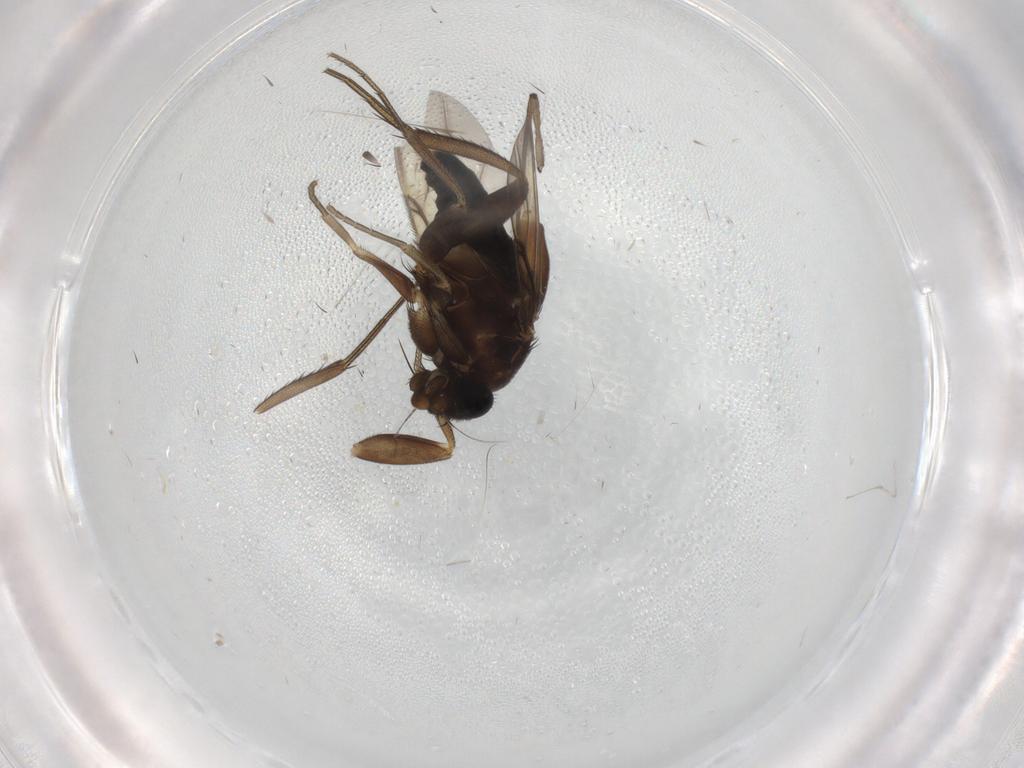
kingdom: Animalia
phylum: Arthropoda
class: Insecta
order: Diptera
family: Phoridae
